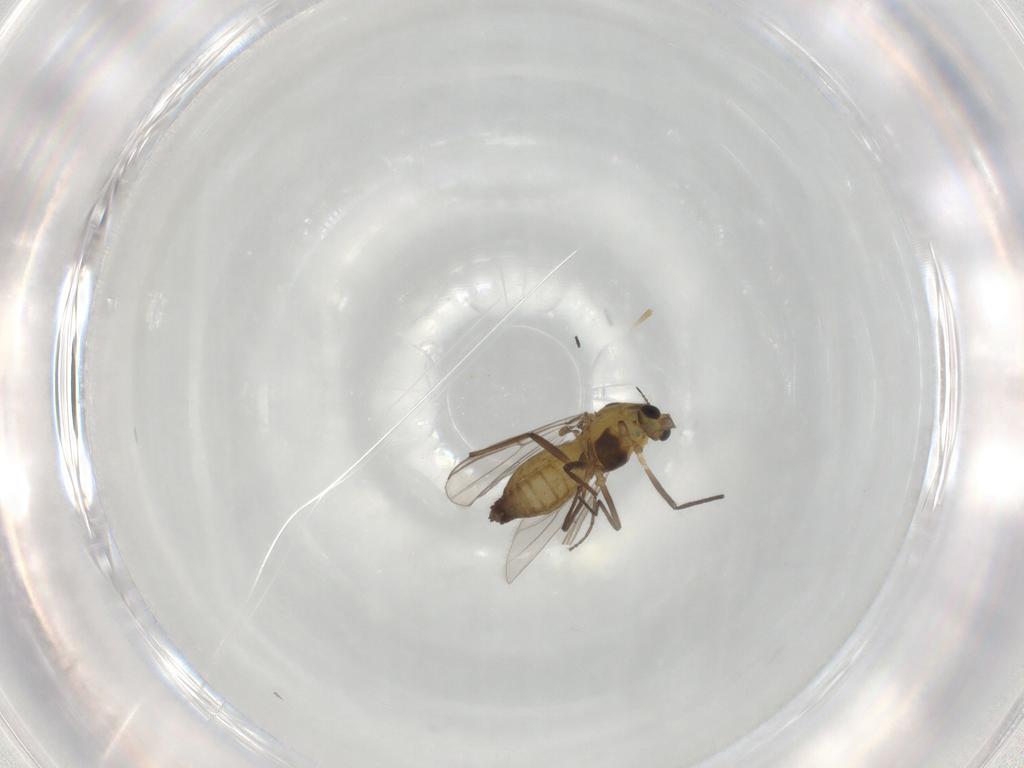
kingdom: Animalia
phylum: Arthropoda
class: Insecta
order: Diptera
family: Chironomidae
